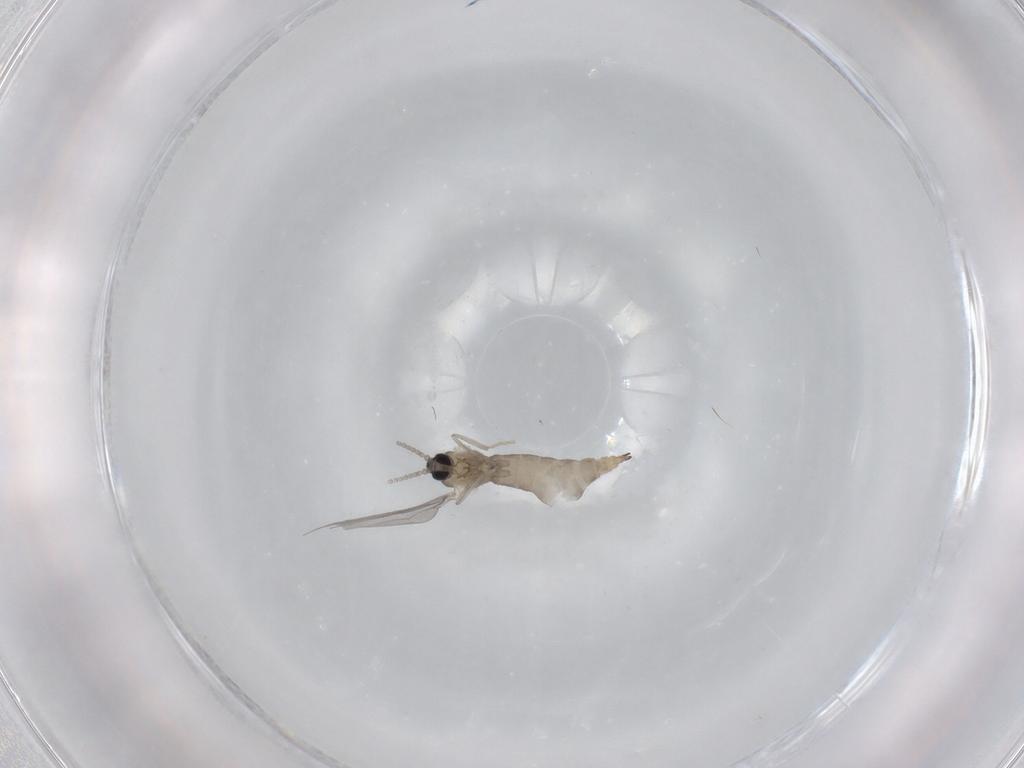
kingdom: Animalia
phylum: Arthropoda
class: Insecta
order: Diptera
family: Cecidomyiidae
